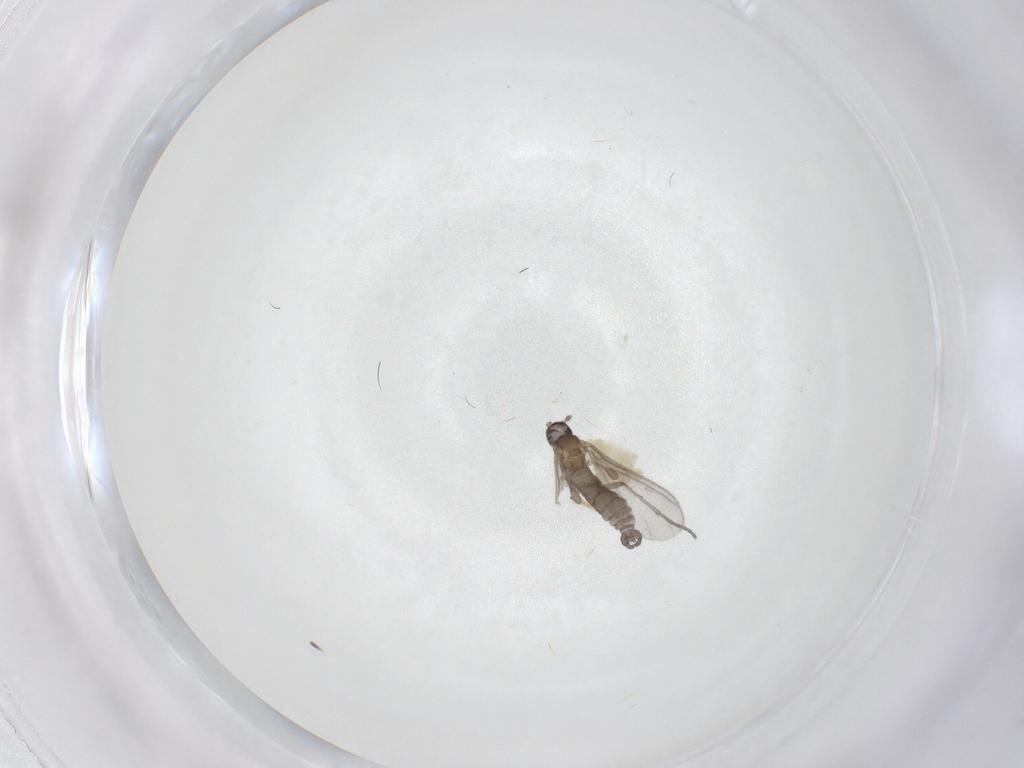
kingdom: Animalia
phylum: Arthropoda
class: Insecta
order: Diptera
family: Sciaridae
